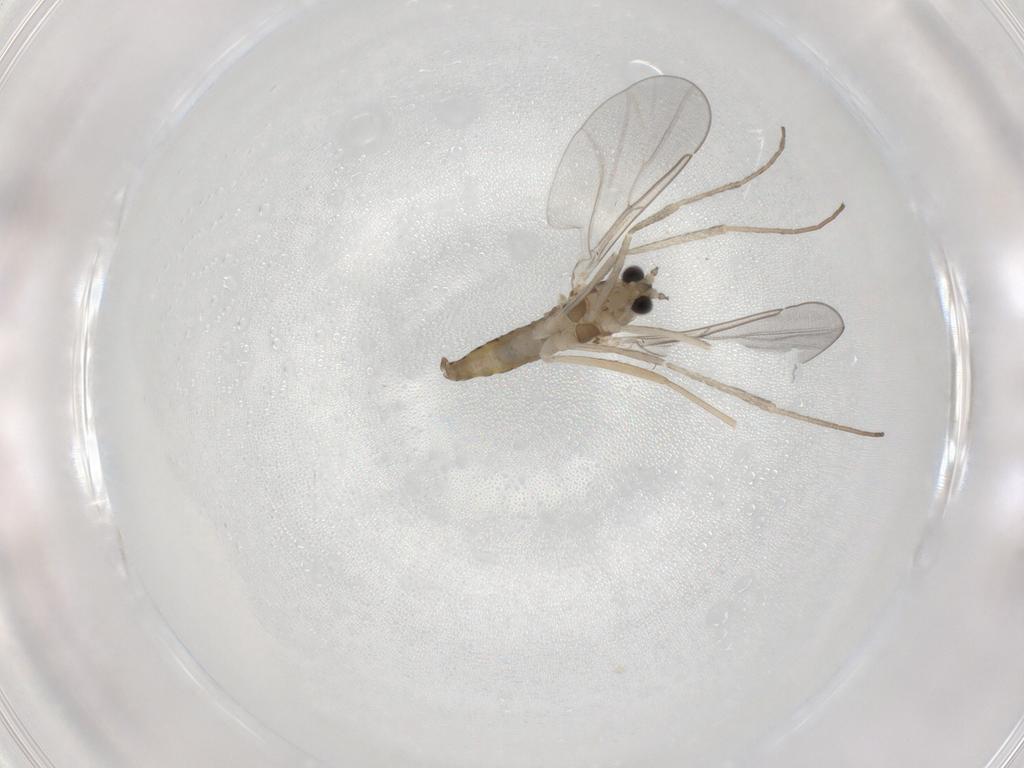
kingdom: Animalia
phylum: Arthropoda
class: Insecta
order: Diptera
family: Cecidomyiidae
